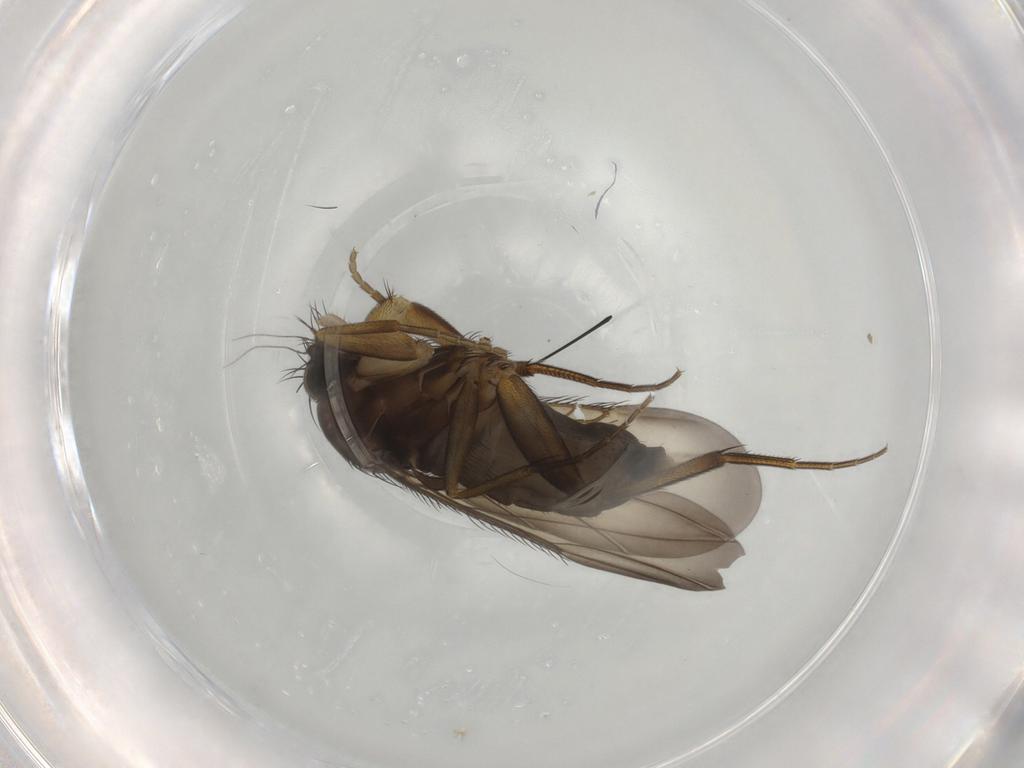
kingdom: Animalia
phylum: Arthropoda
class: Insecta
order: Diptera
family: Phoridae
